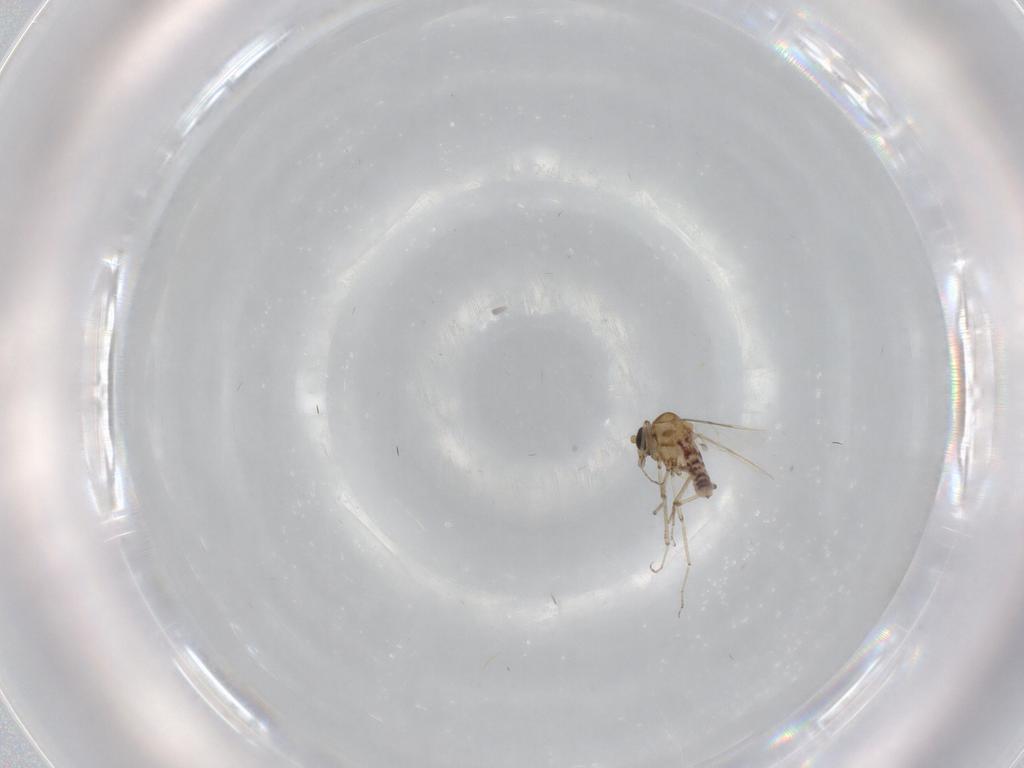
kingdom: Animalia
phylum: Arthropoda
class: Insecta
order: Diptera
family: Ceratopogonidae
